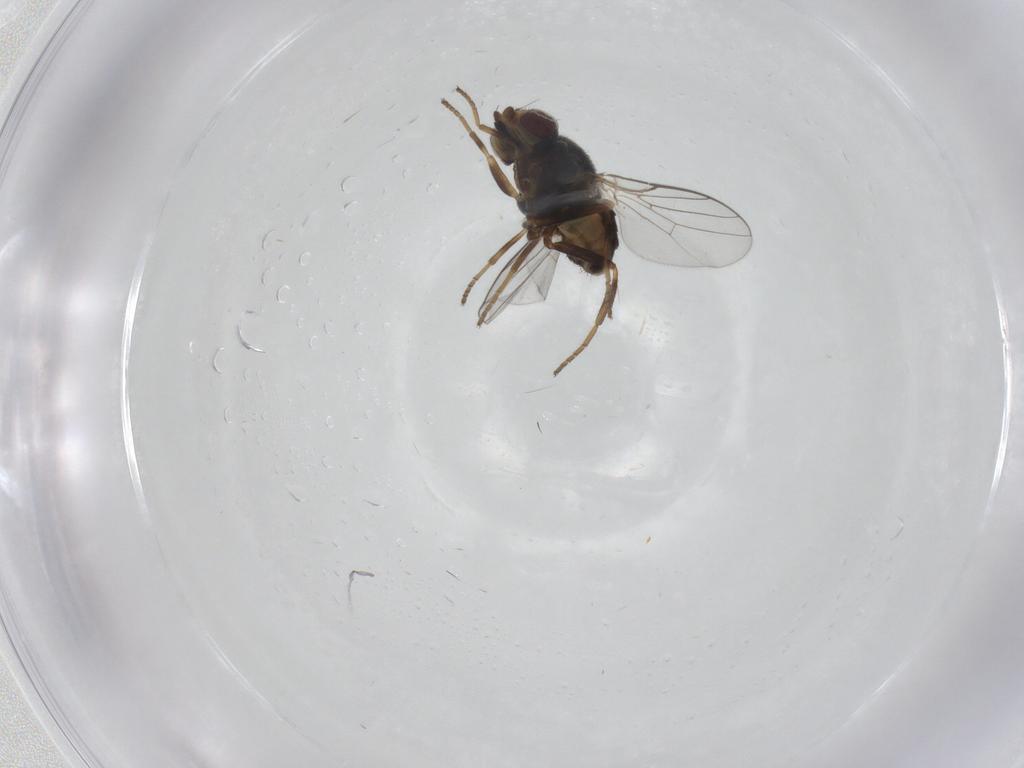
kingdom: Animalia
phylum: Arthropoda
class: Insecta
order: Diptera
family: Chloropidae
